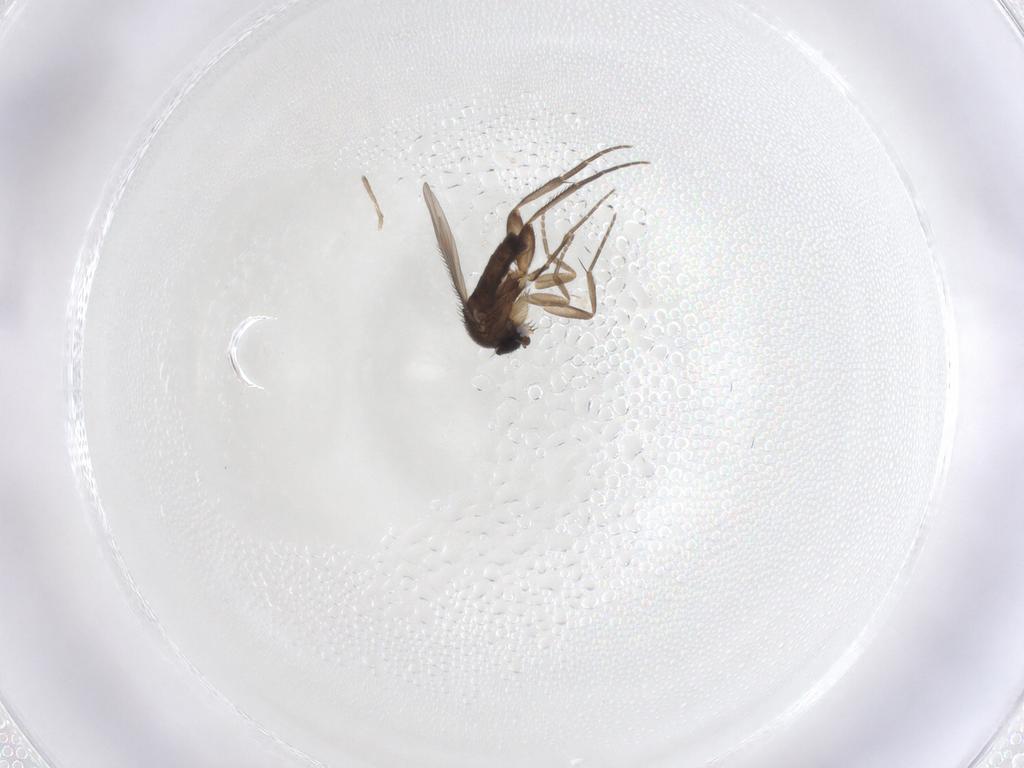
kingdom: Animalia
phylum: Arthropoda
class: Insecta
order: Diptera
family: Phoridae
